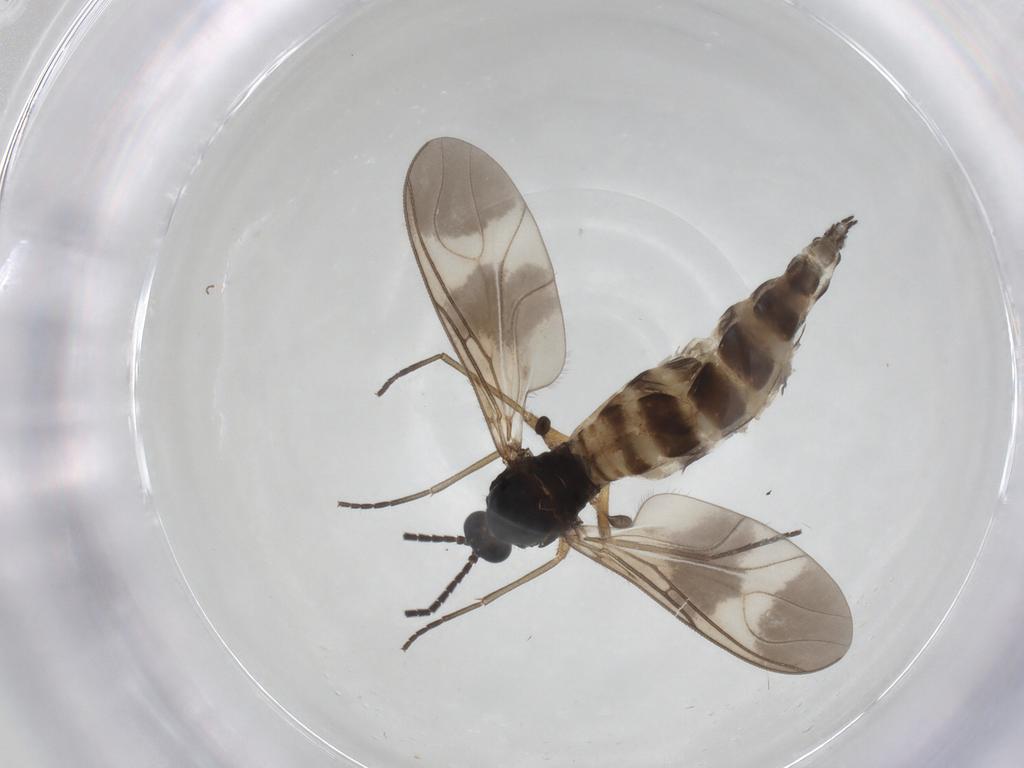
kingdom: Animalia
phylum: Arthropoda
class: Insecta
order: Diptera
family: Sciaridae
